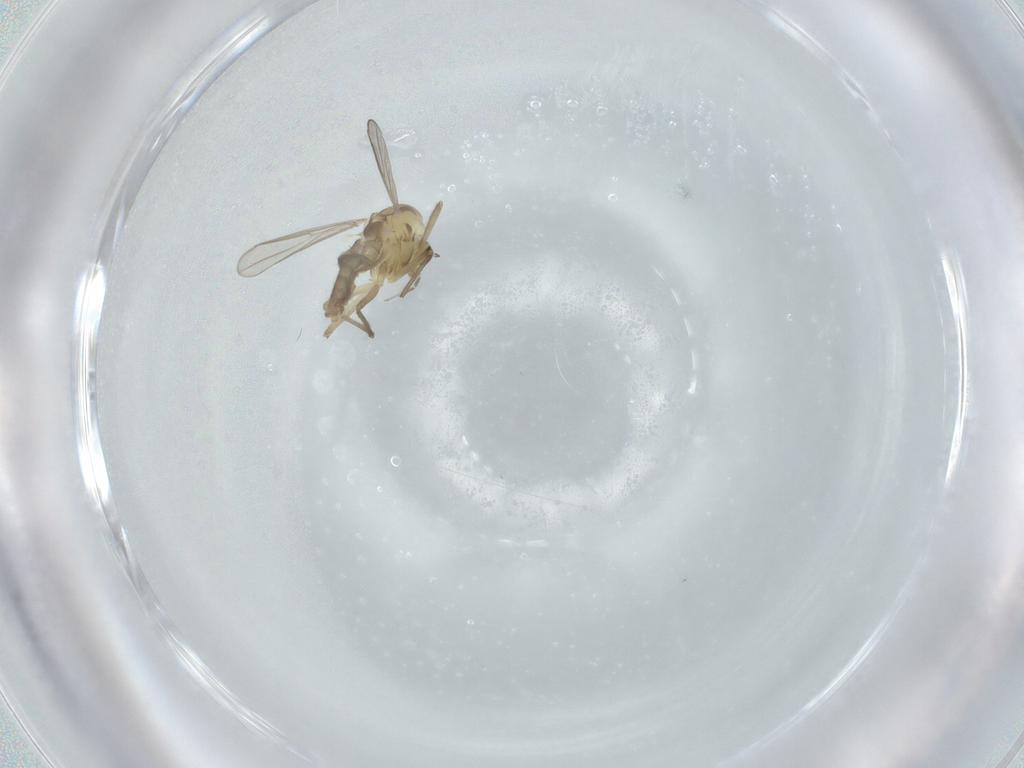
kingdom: Animalia
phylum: Arthropoda
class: Insecta
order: Diptera
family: Chironomidae
